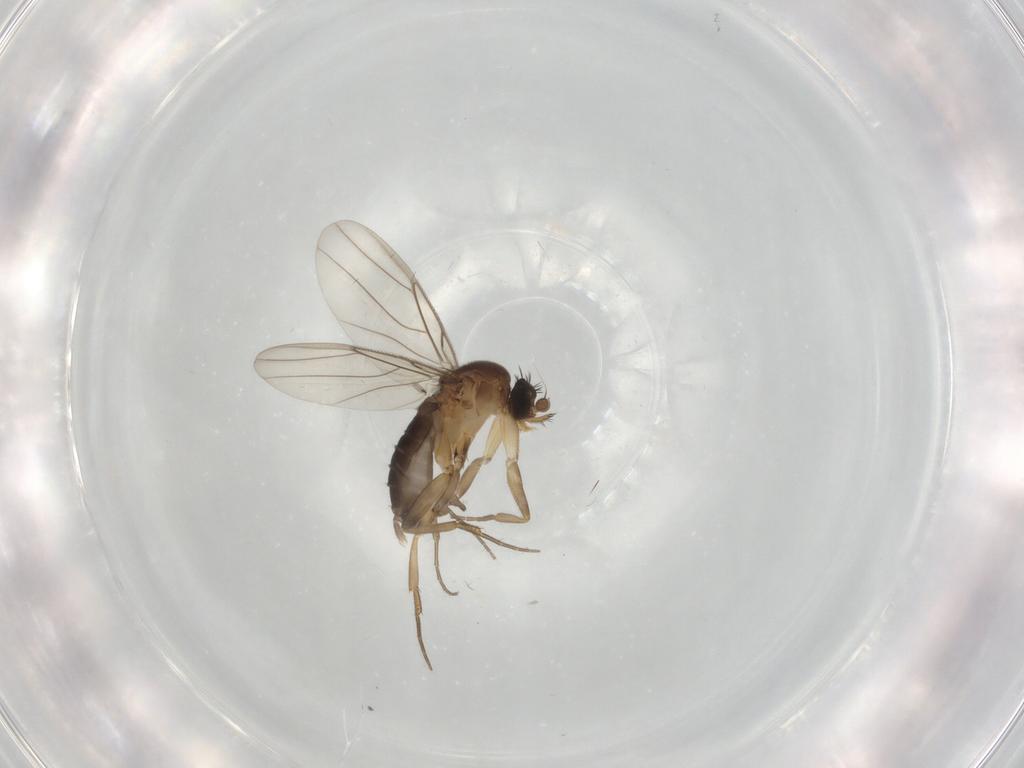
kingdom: Animalia
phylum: Arthropoda
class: Insecta
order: Diptera
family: Phoridae
